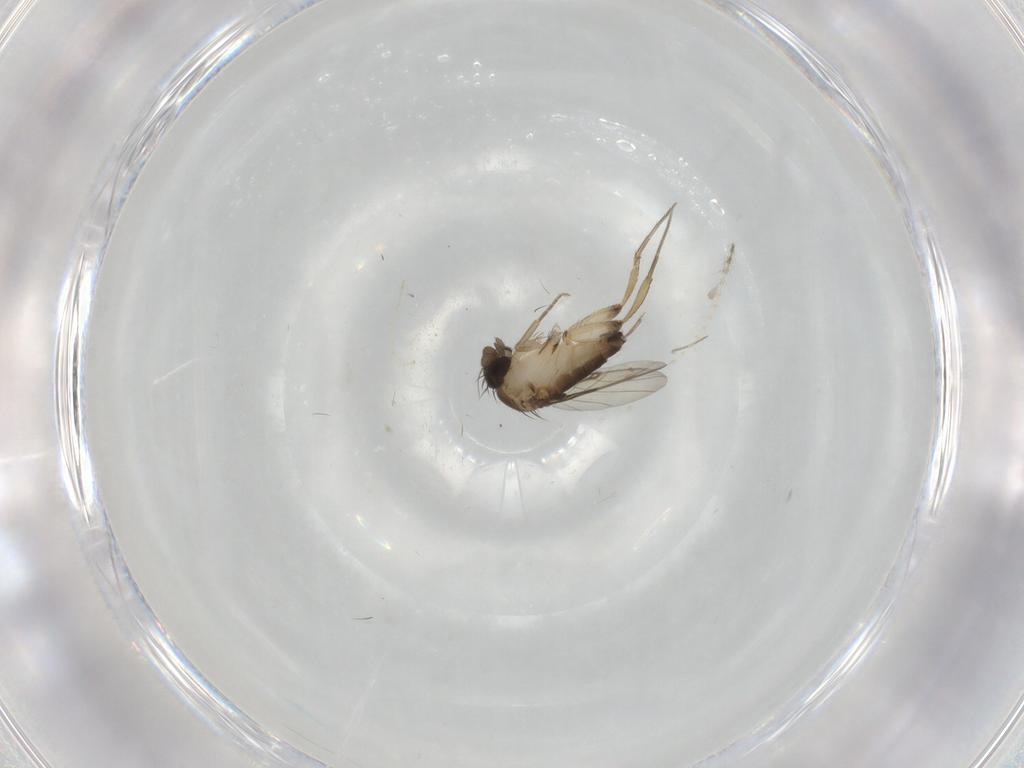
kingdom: Animalia
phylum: Arthropoda
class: Insecta
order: Diptera
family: Phoridae
